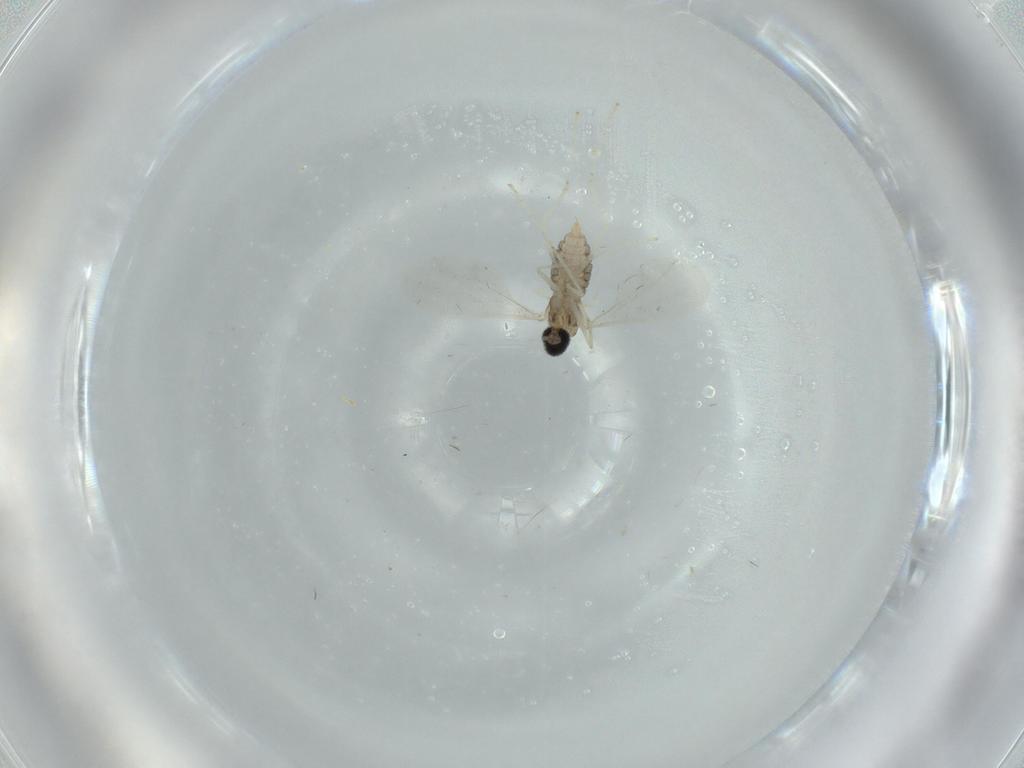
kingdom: Animalia
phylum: Arthropoda
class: Insecta
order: Diptera
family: Cecidomyiidae
